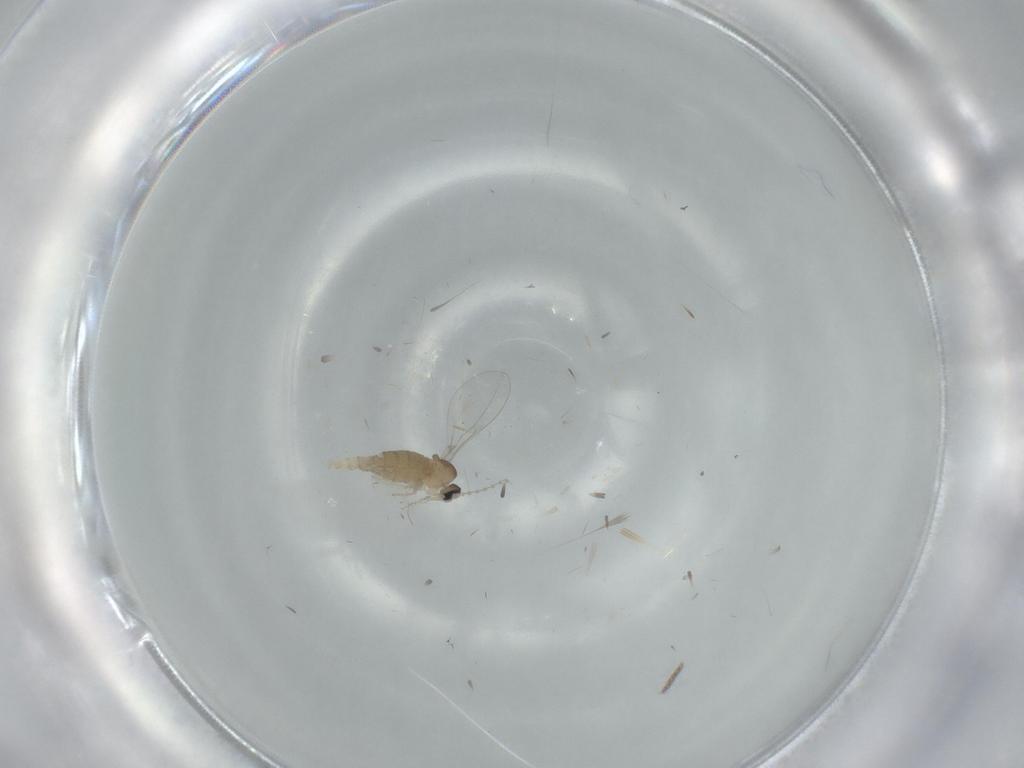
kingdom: Animalia
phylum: Arthropoda
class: Insecta
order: Diptera
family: Cecidomyiidae
